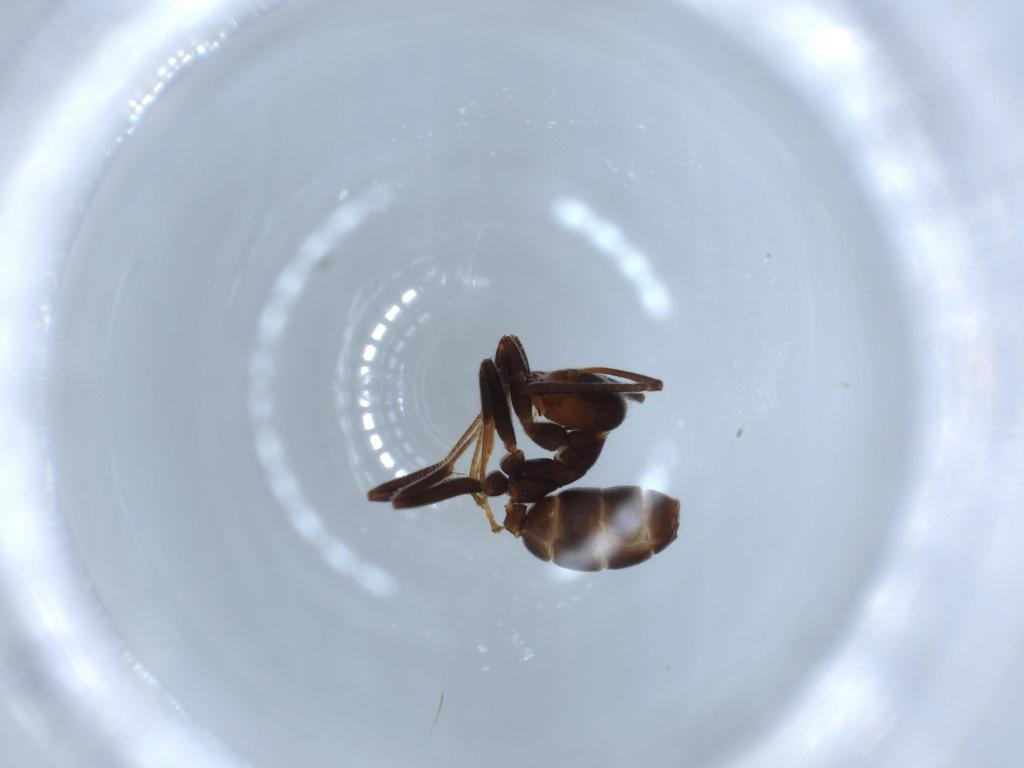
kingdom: Animalia
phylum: Arthropoda
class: Insecta
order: Hymenoptera
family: Formicidae
